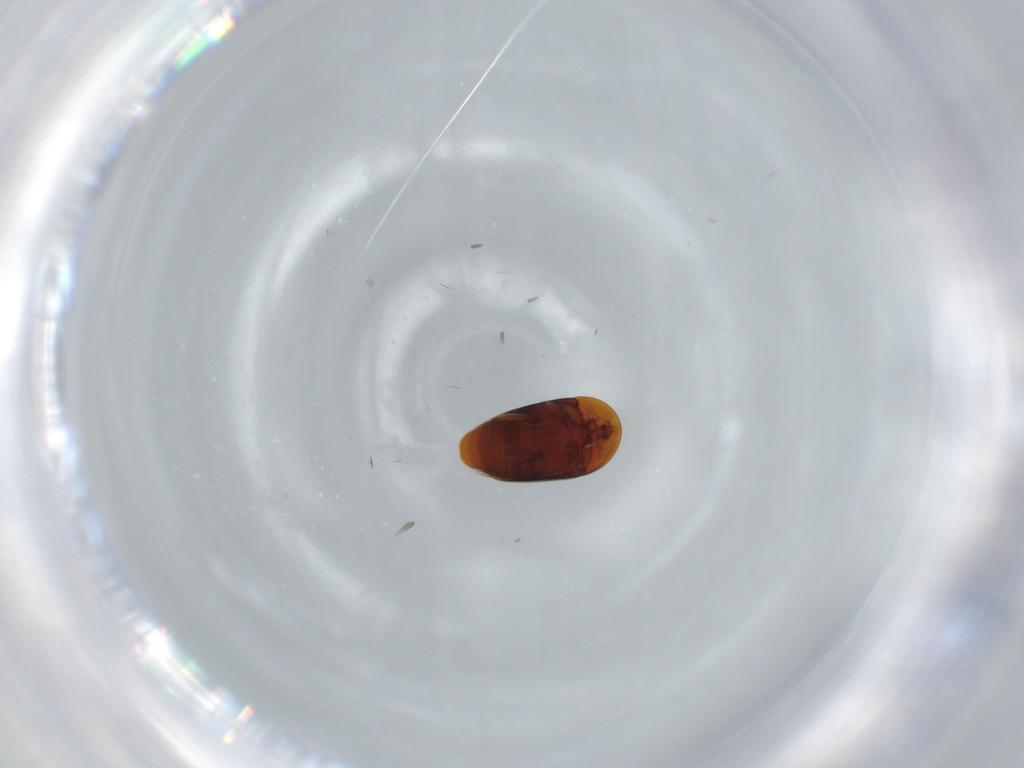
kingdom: Animalia
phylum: Arthropoda
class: Insecta
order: Coleoptera
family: Corylophidae
